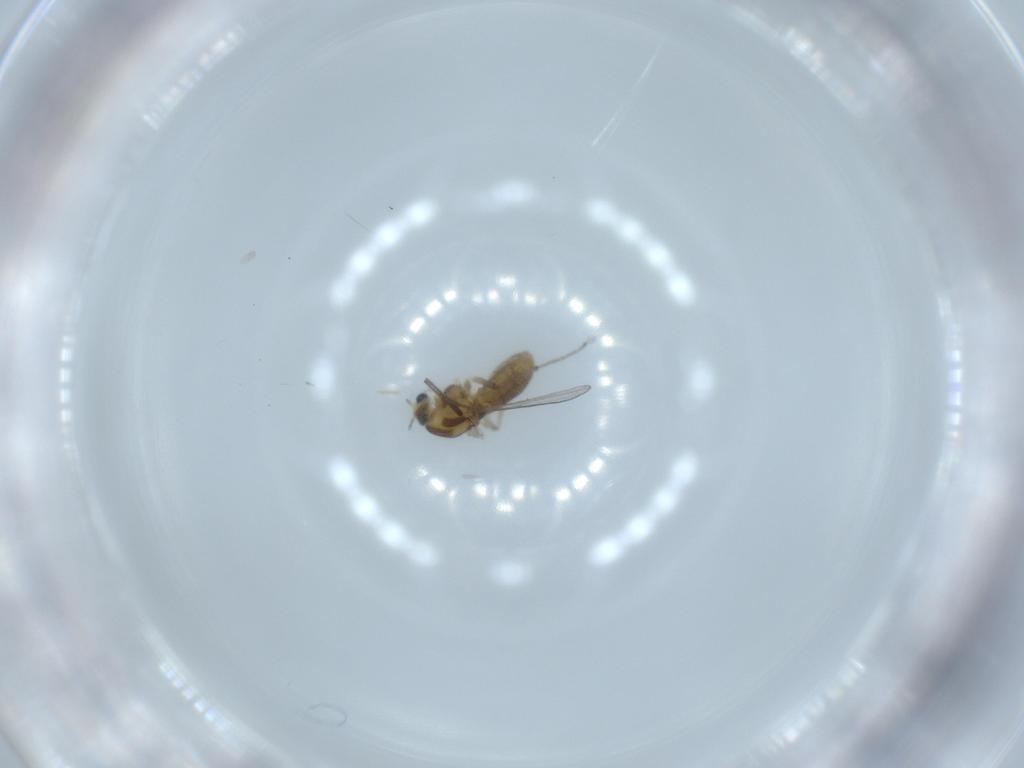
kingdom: Animalia
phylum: Arthropoda
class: Insecta
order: Diptera
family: Chironomidae
